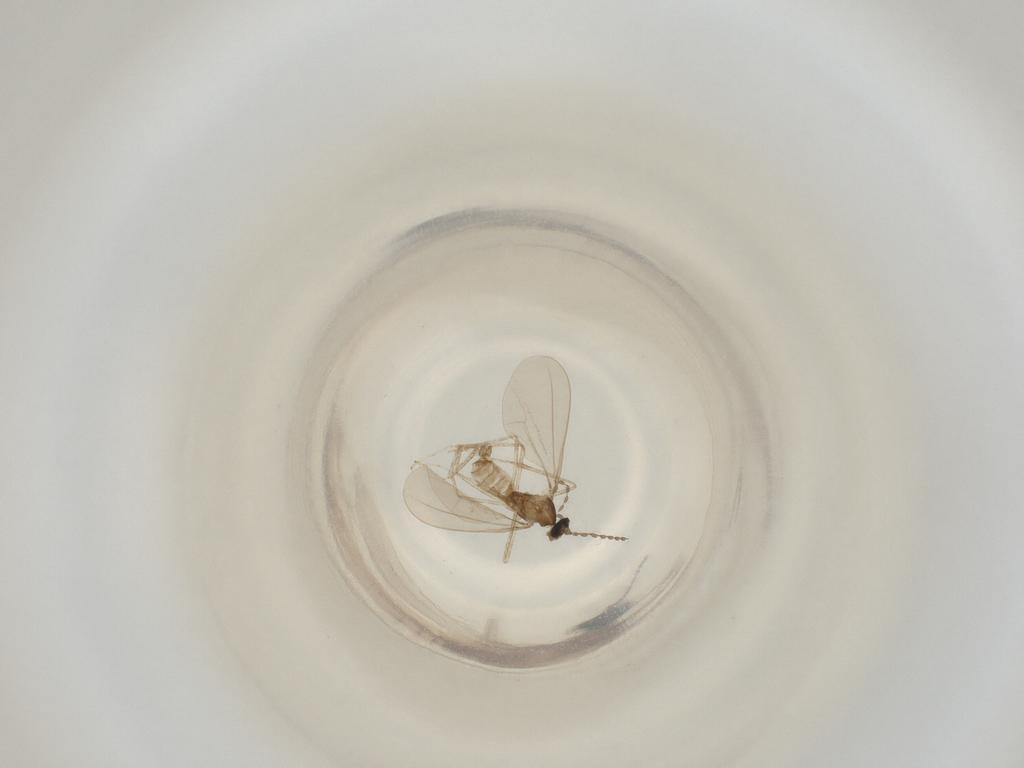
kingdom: Animalia
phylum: Arthropoda
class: Insecta
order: Diptera
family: Cecidomyiidae
